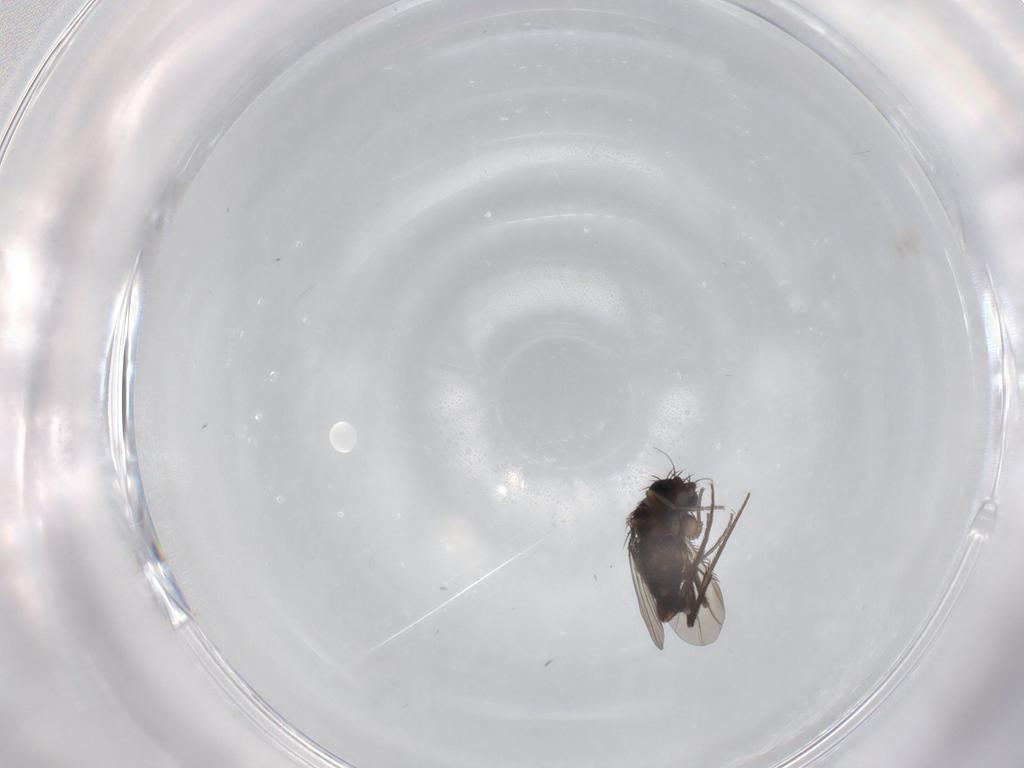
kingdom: Animalia
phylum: Arthropoda
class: Insecta
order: Diptera
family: Phoridae
